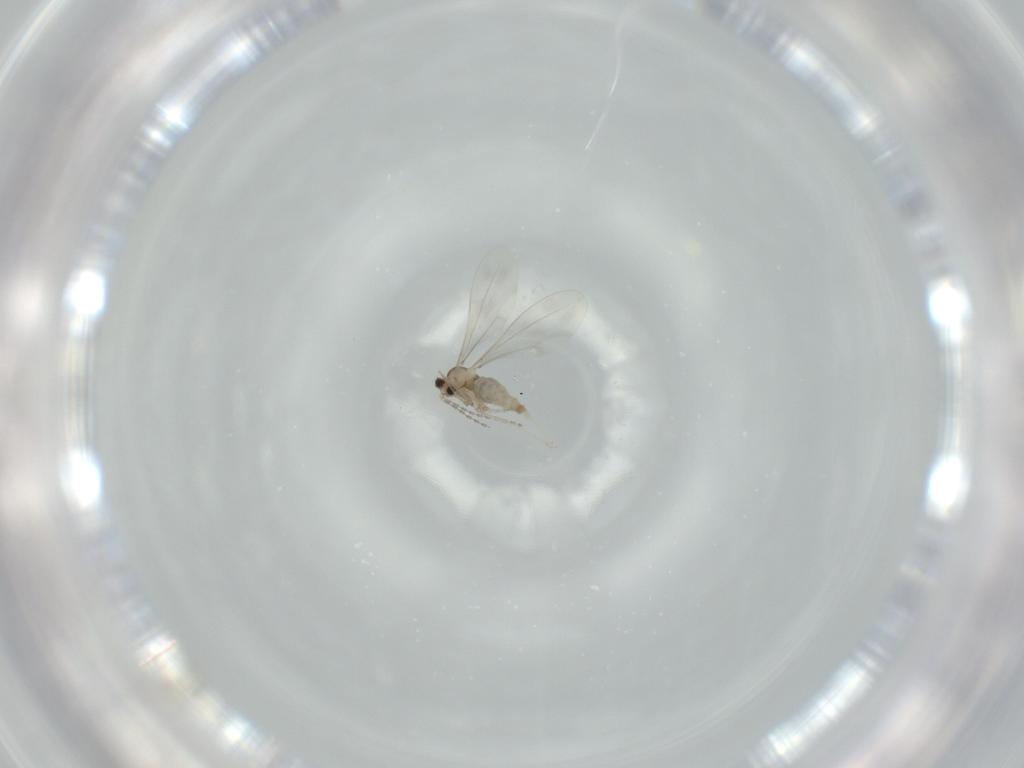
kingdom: Animalia
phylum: Arthropoda
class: Insecta
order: Diptera
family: Cecidomyiidae
